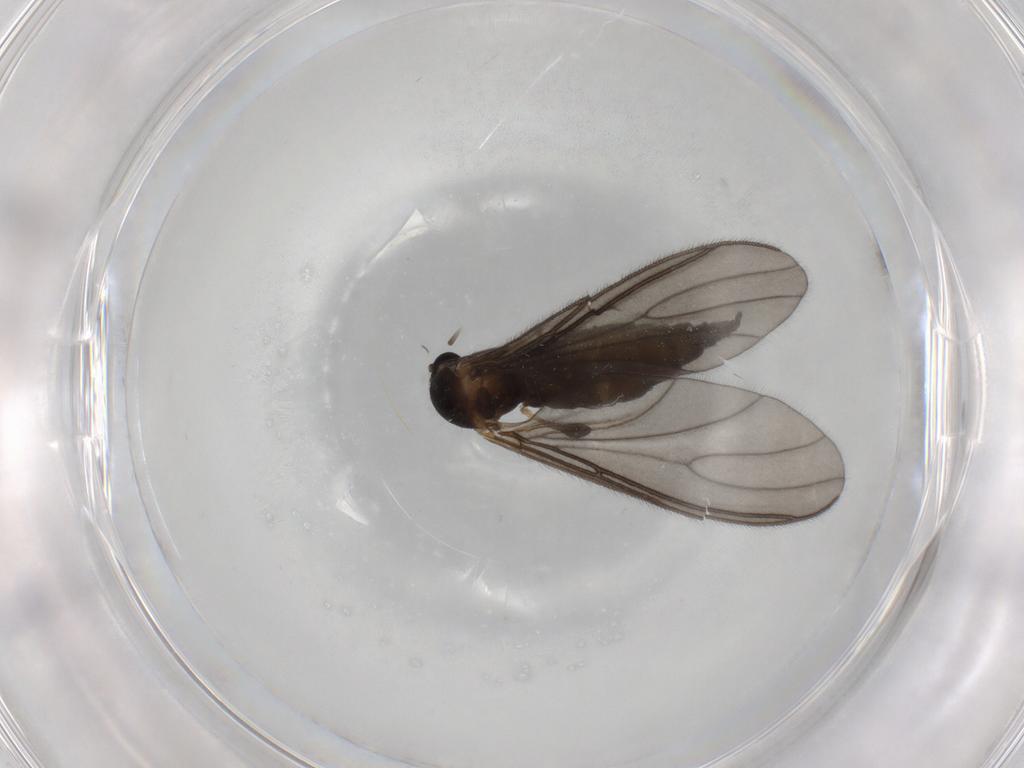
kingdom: Animalia
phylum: Arthropoda
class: Insecta
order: Diptera
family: Sciaridae
